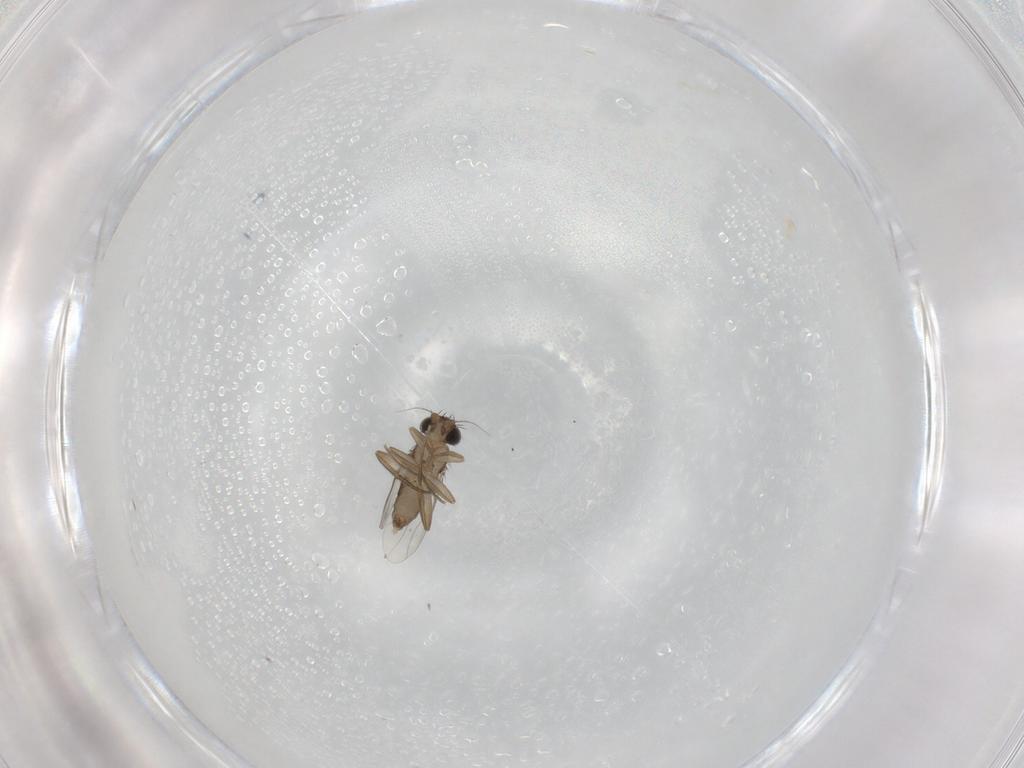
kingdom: Animalia
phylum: Arthropoda
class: Insecta
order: Diptera
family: Phoridae
